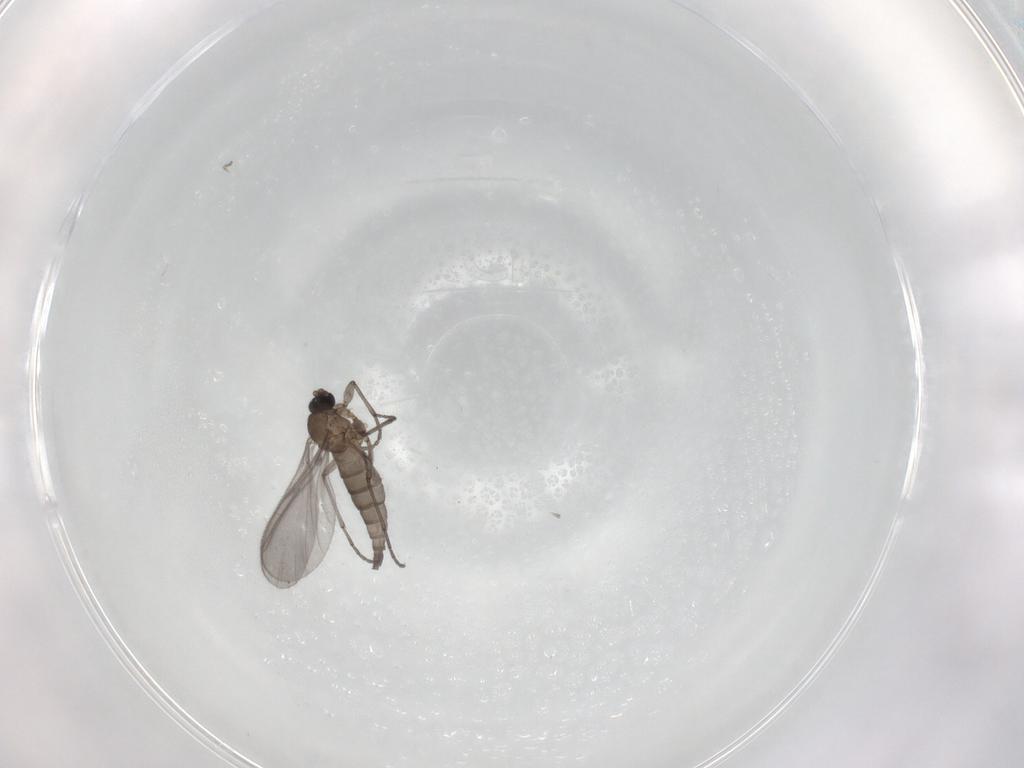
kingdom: Animalia
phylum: Arthropoda
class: Insecta
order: Diptera
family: Sciaridae
